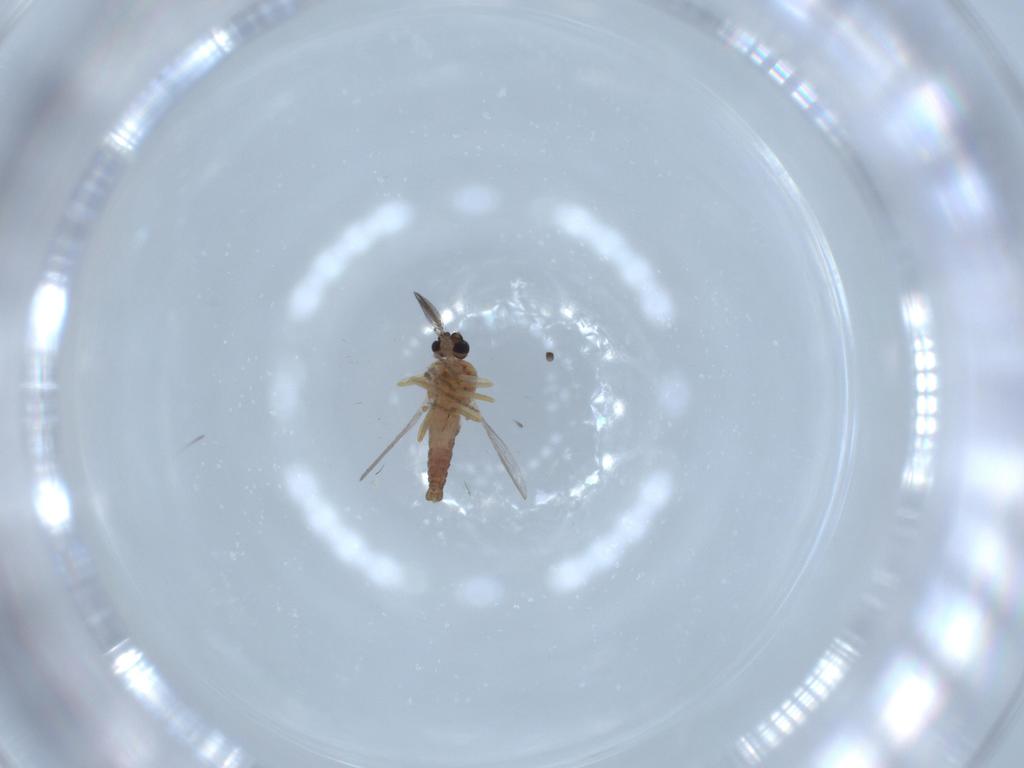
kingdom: Animalia
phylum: Arthropoda
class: Insecta
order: Diptera
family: Ceratopogonidae
